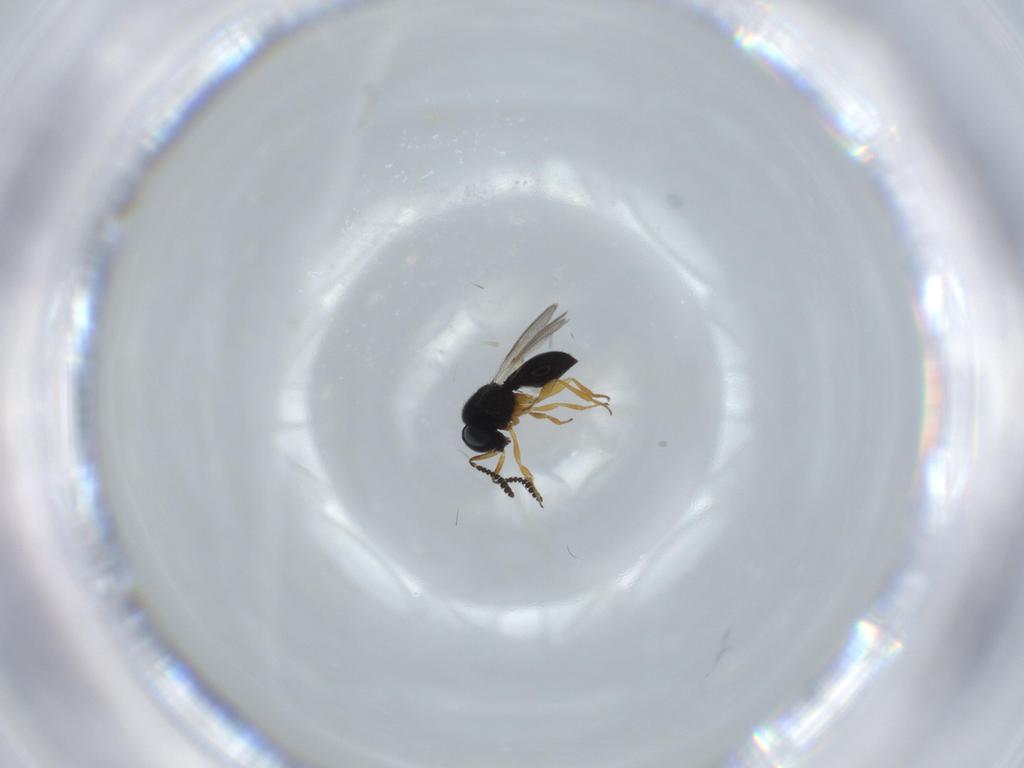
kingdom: Animalia
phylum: Arthropoda
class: Insecta
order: Hymenoptera
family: Scelionidae
